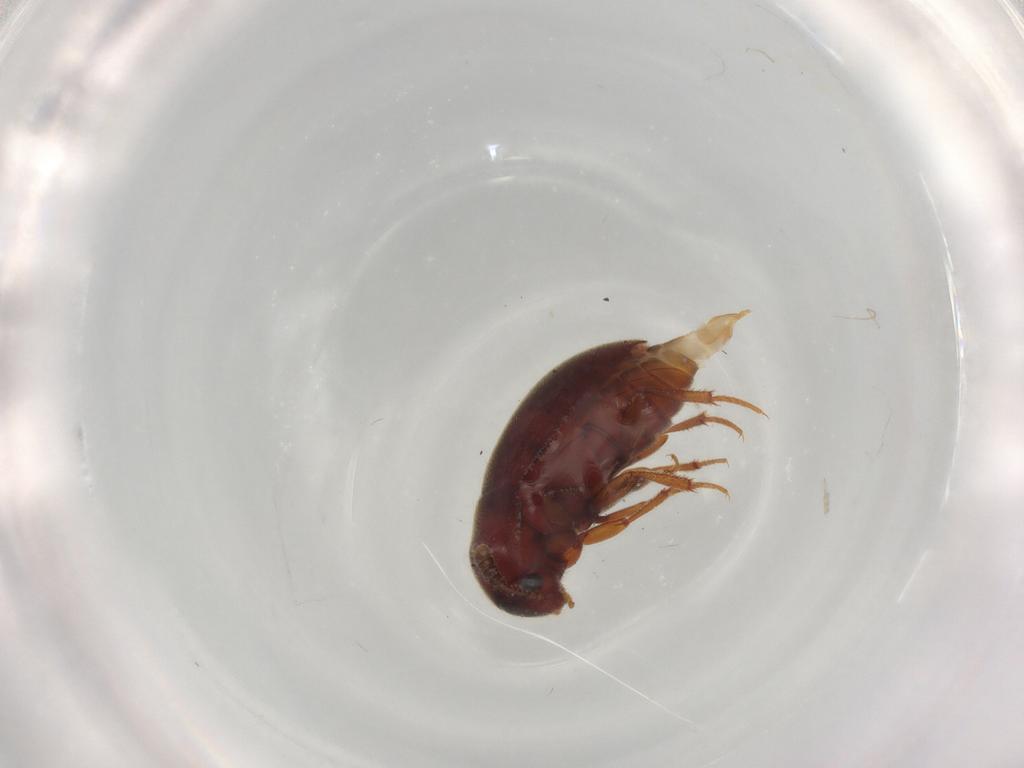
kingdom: Animalia
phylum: Arthropoda
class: Insecta
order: Coleoptera
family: Leiodidae
